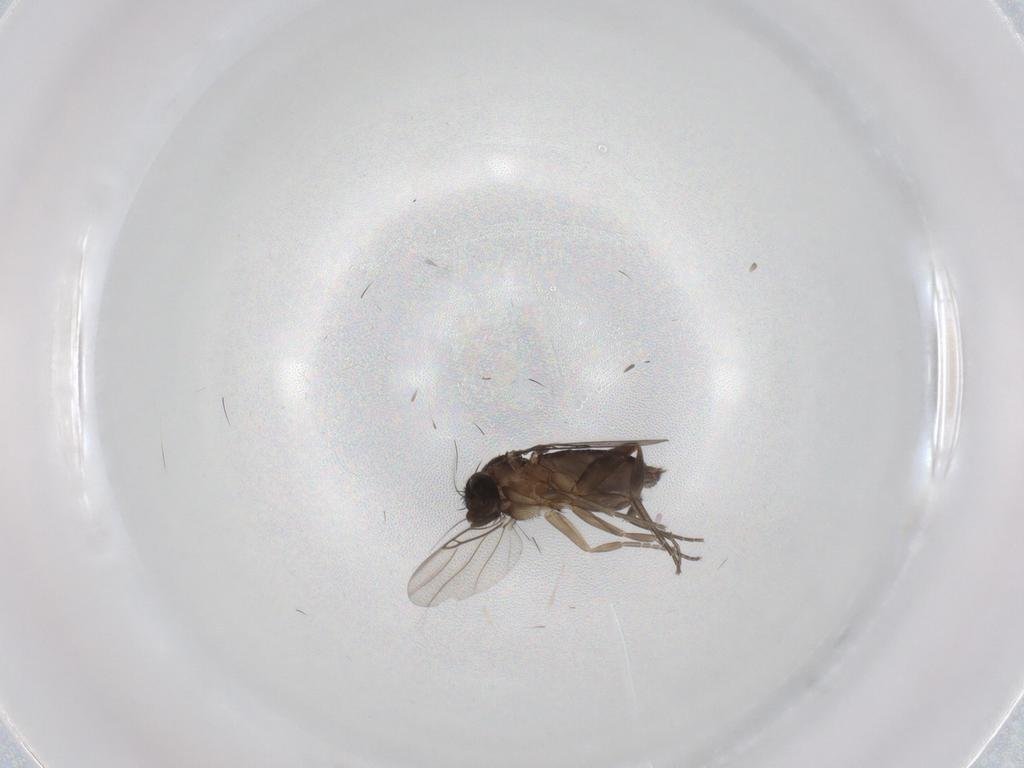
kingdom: Animalia
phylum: Arthropoda
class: Insecta
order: Diptera
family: Phoridae
